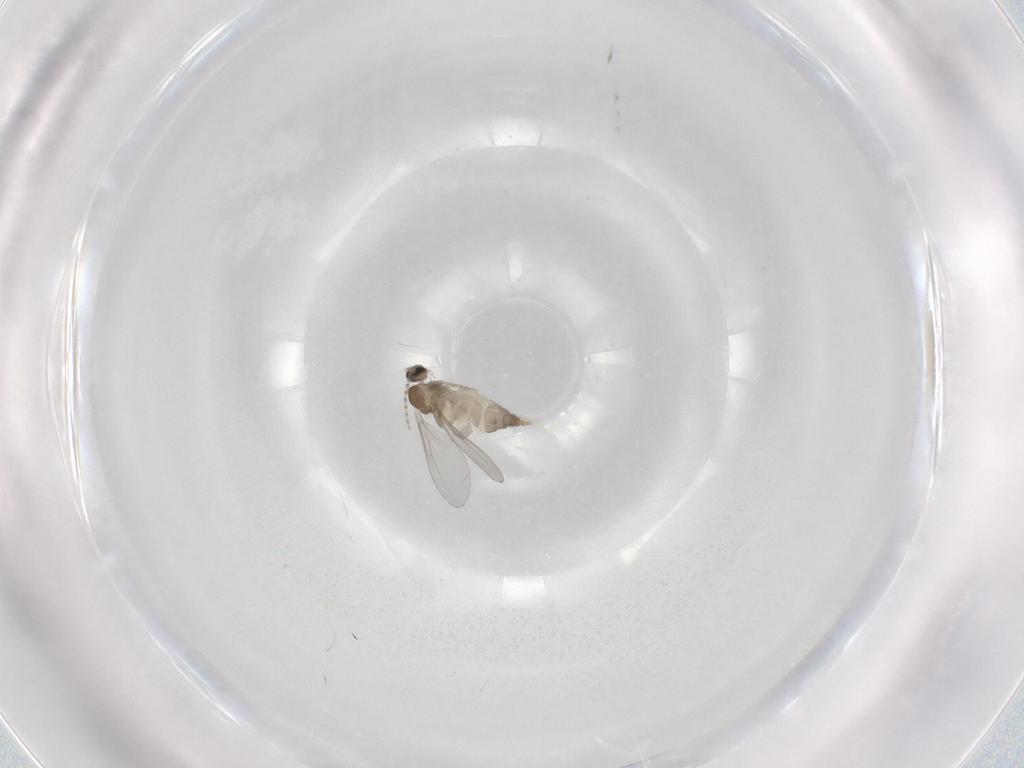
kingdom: Animalia
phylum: Arthropoda
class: Insecta
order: Diptera
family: Cecidomyiidae
